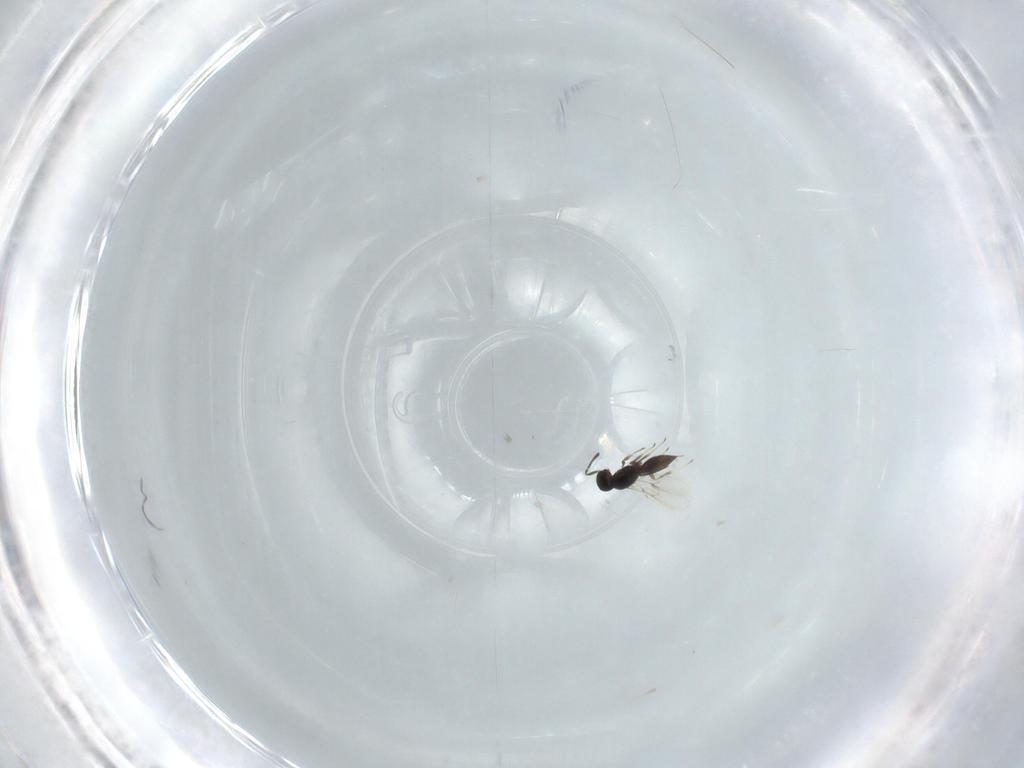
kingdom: Animalia
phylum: Arthropoda
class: Insecta
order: Hymenoptera
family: Scelionidae
